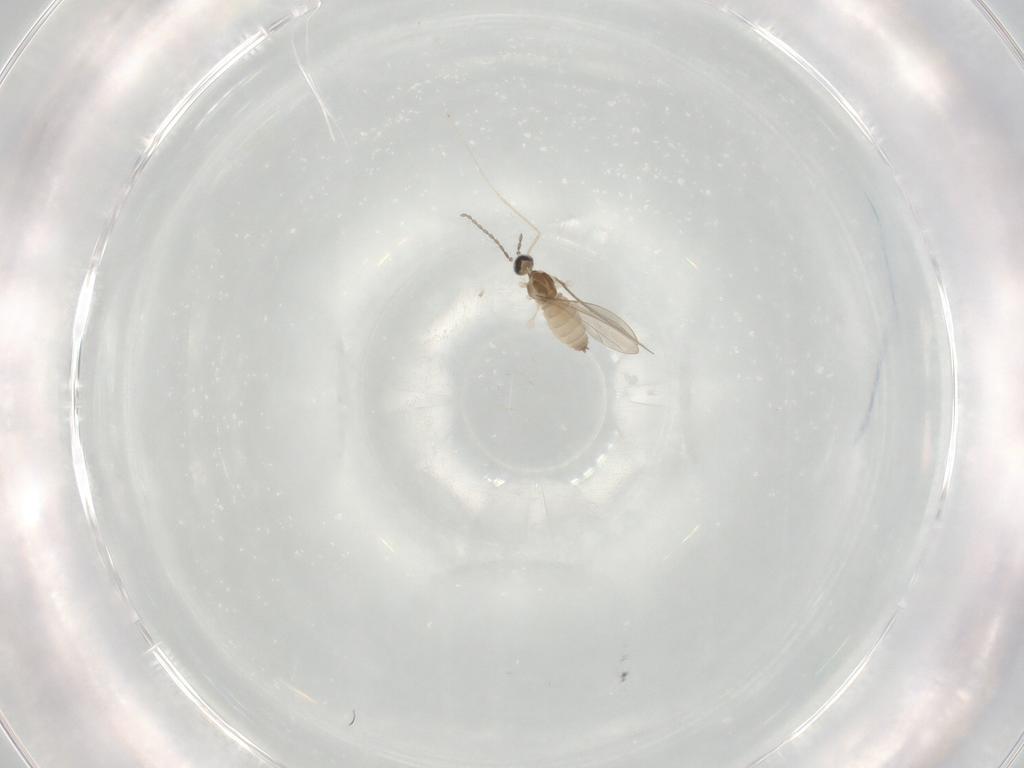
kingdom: Animalia
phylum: Arthropoda
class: Insecta
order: Diptera
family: Cecidomyiidae
